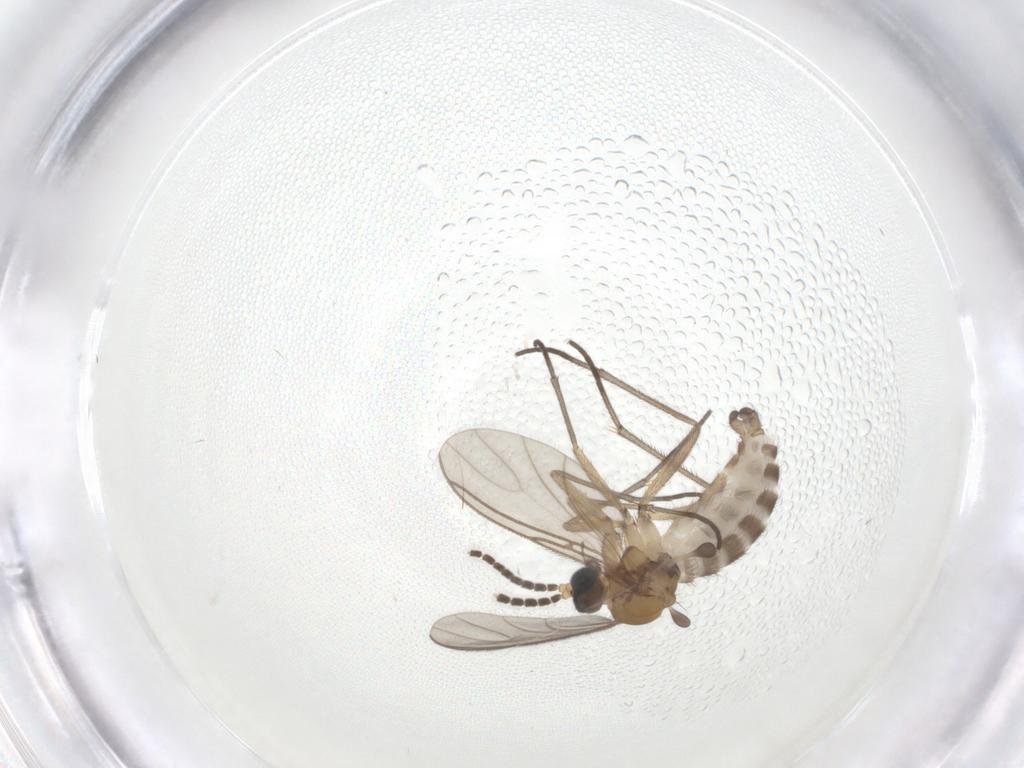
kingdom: Animalia
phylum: Arthropoda
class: Insecta
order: Diptera
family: Sciaridae
